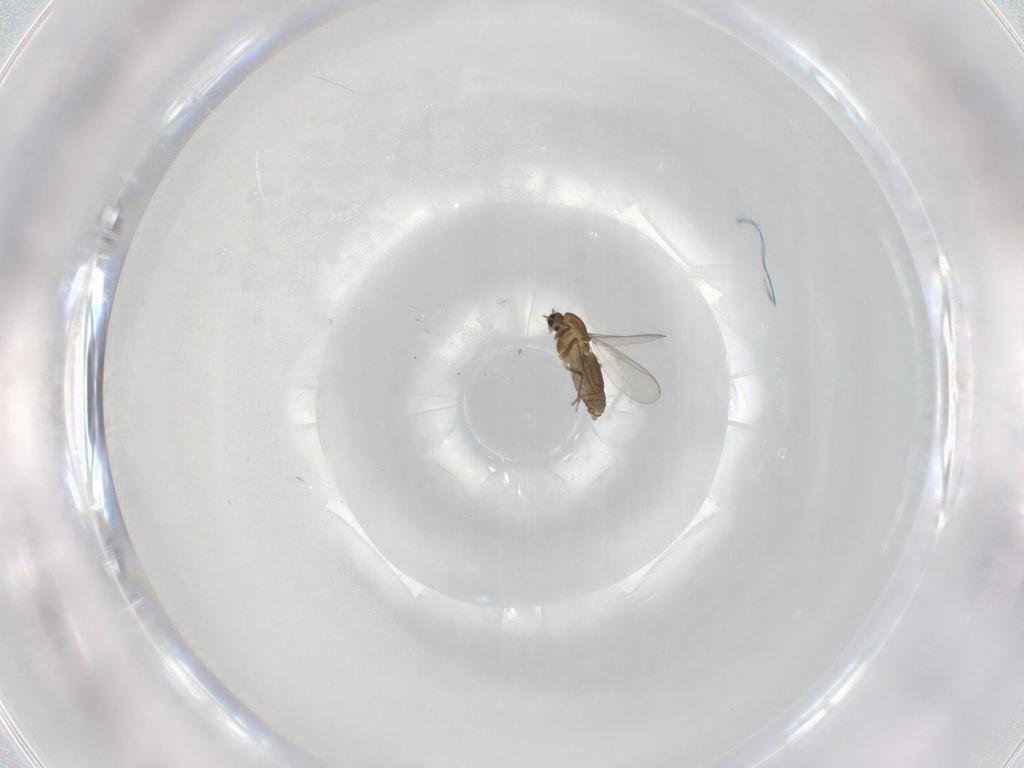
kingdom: Animalia
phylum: Arthropoda
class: Insecta
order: Diptera
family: Chironomidae
